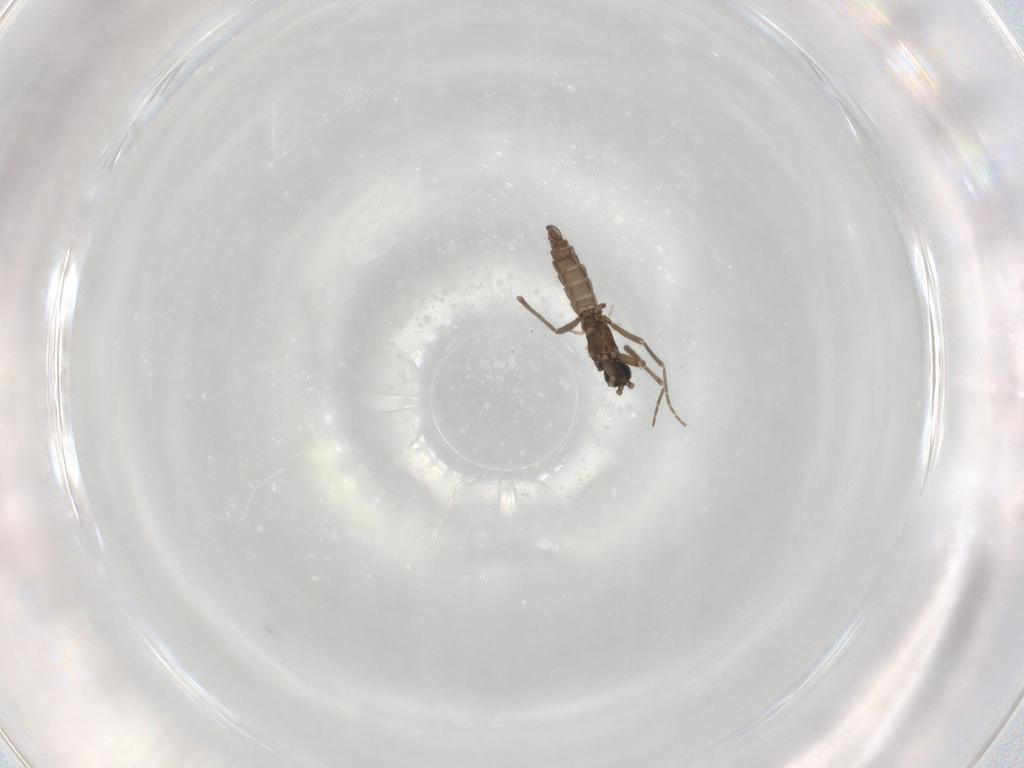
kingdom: Animalia
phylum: Arthropoda
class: Insecta
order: Diptera
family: Sciaridae
